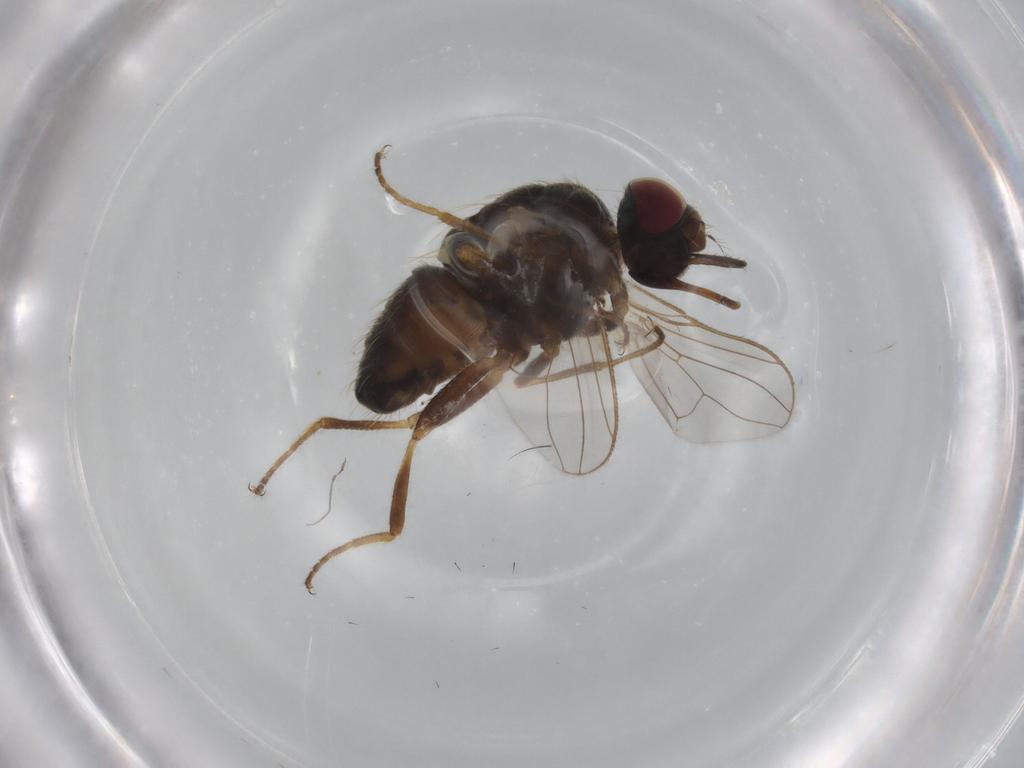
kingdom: Animalia
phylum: Arthropoda
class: Insecta
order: Diptera
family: Muscidae
